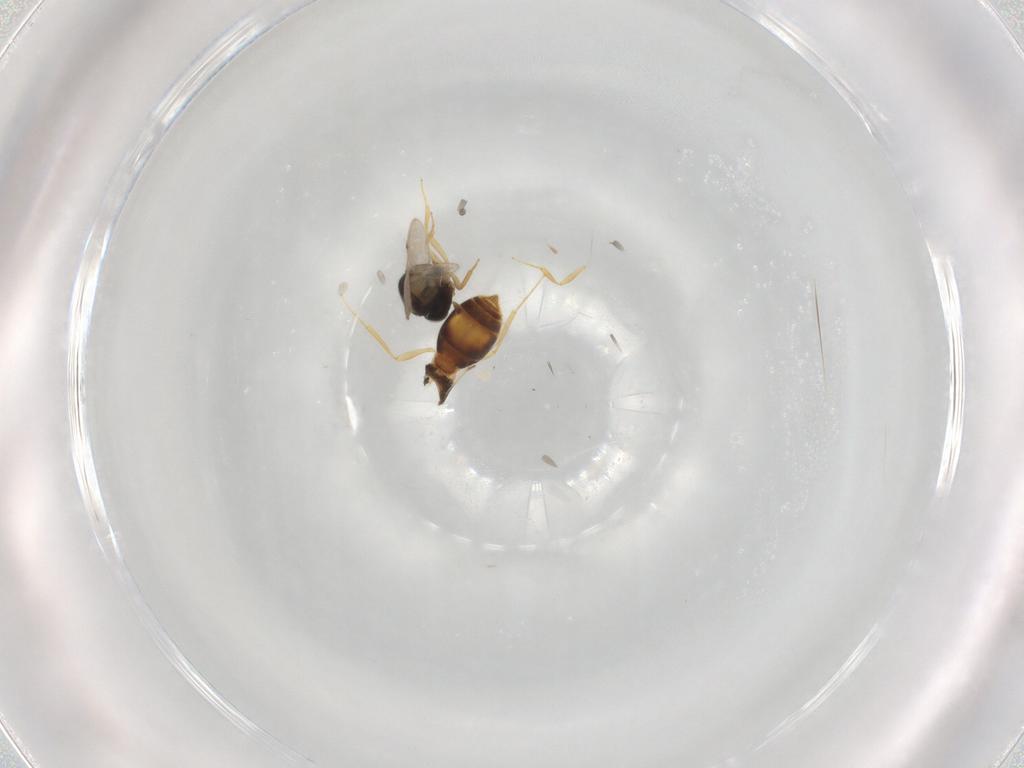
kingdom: Animalia
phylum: Arthropoda
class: Insecta
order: Hymenoptera
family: Scelionidae
